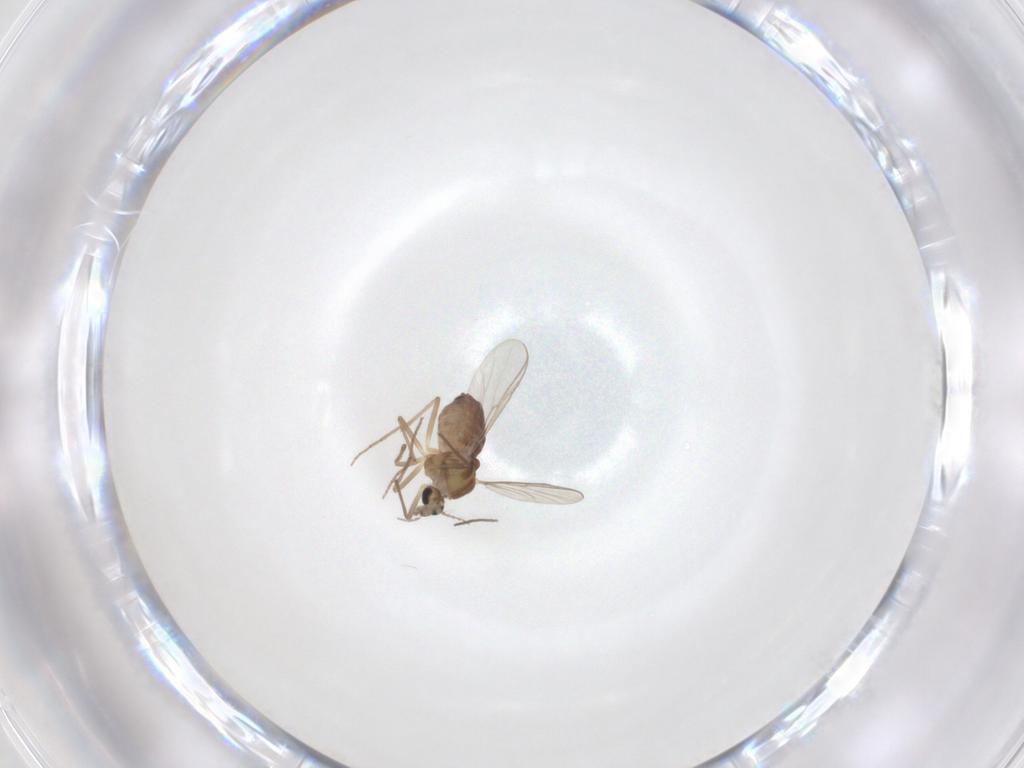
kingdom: Animalia
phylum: Arthropoda
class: Insecta
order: Diptera
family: Chironomidae
